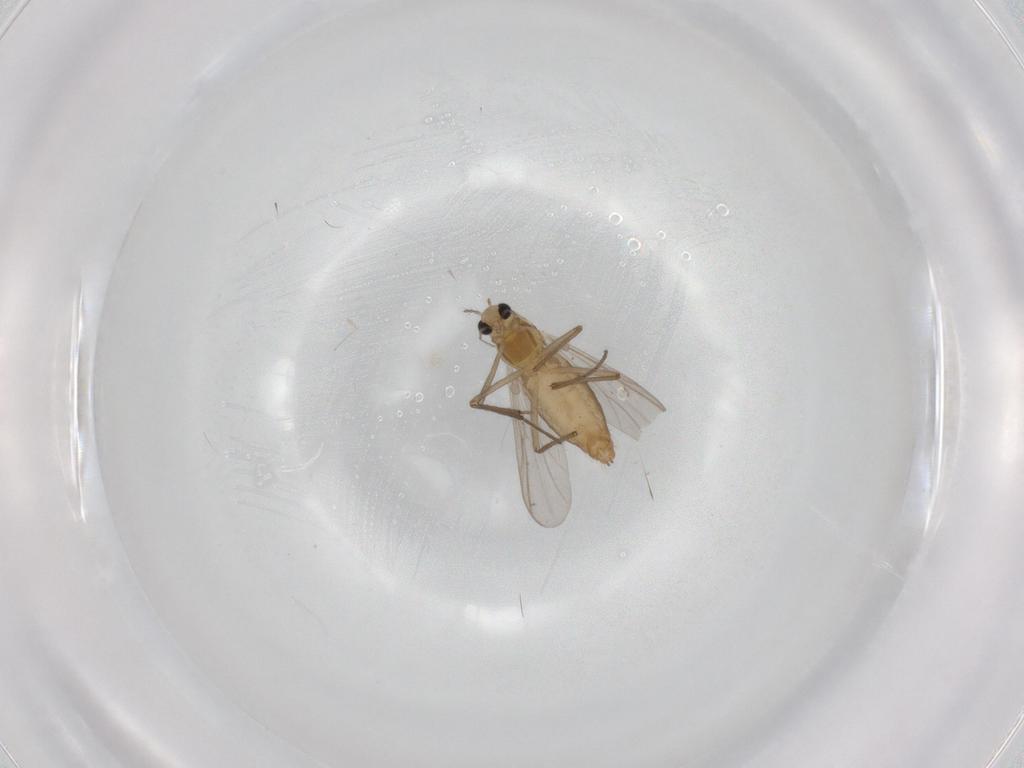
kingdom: Animalia
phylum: Arthropoda
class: Insecta
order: Diptera
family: Chironomidae
